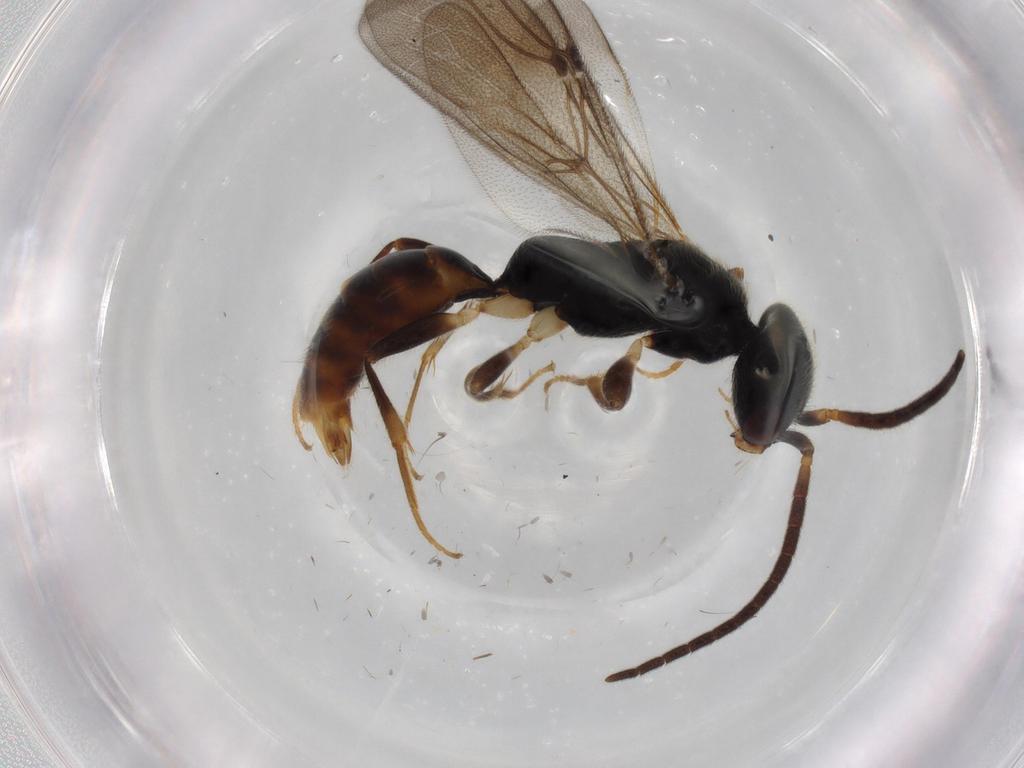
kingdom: Animalia
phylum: Arthropoda
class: Insecta
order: Hymenoptera
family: Bethylidae
